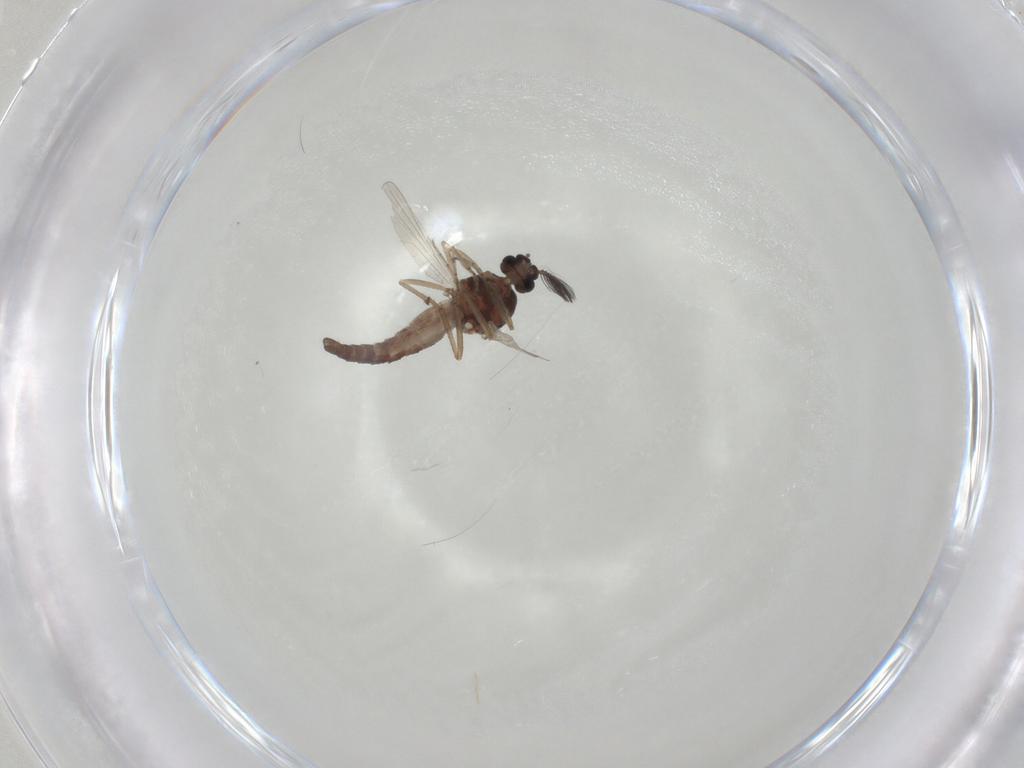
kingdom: Animalia
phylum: Arthropoda
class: Insecta
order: Diptera
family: Ceratopogonidae
